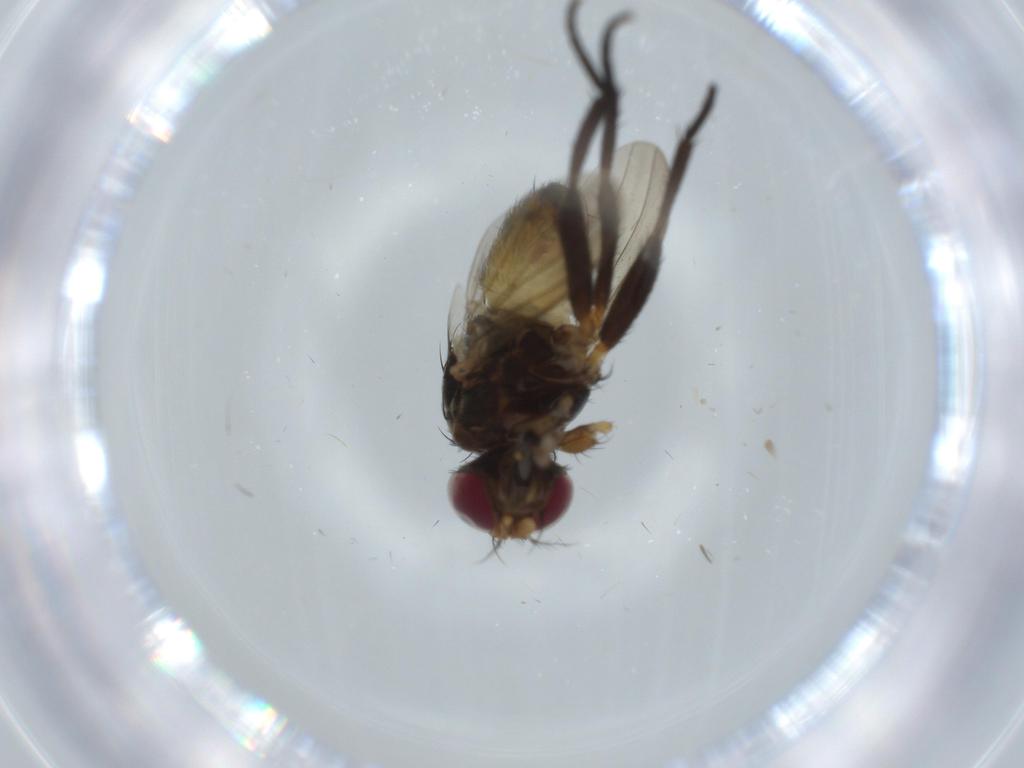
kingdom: Animalia
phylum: Arthropoda
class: Insecta
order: Diptera
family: Anthomyiidae
